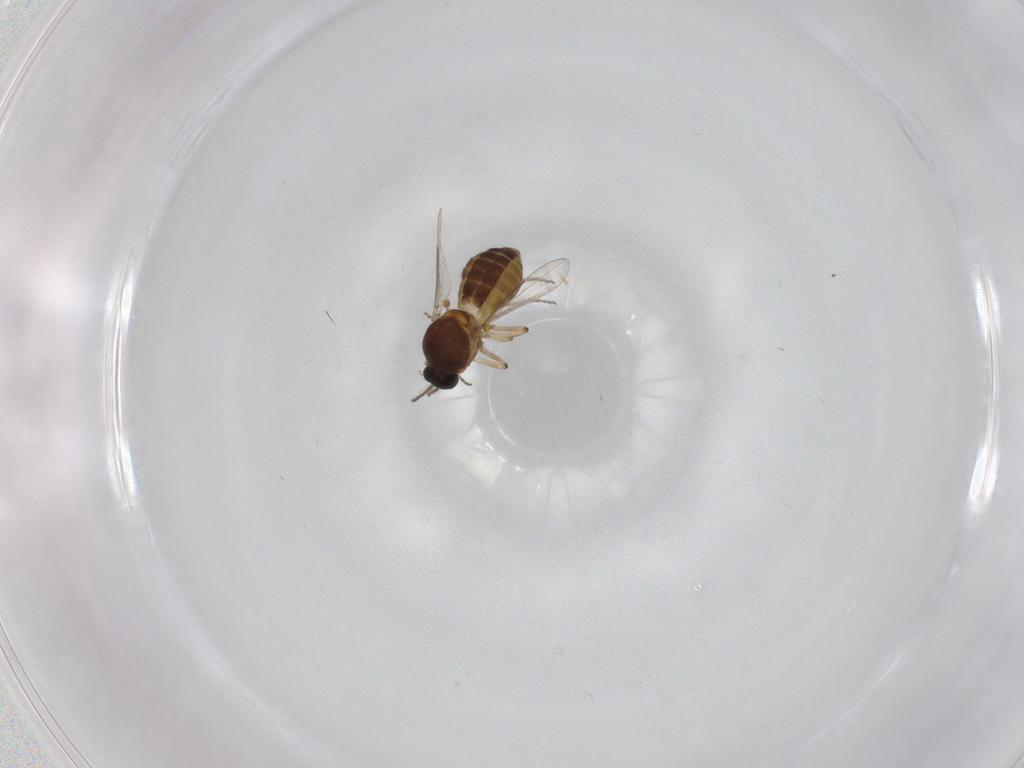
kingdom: Animalia
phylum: Arthropoda
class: Insecta
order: Diptera
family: Ceratopogonidae
